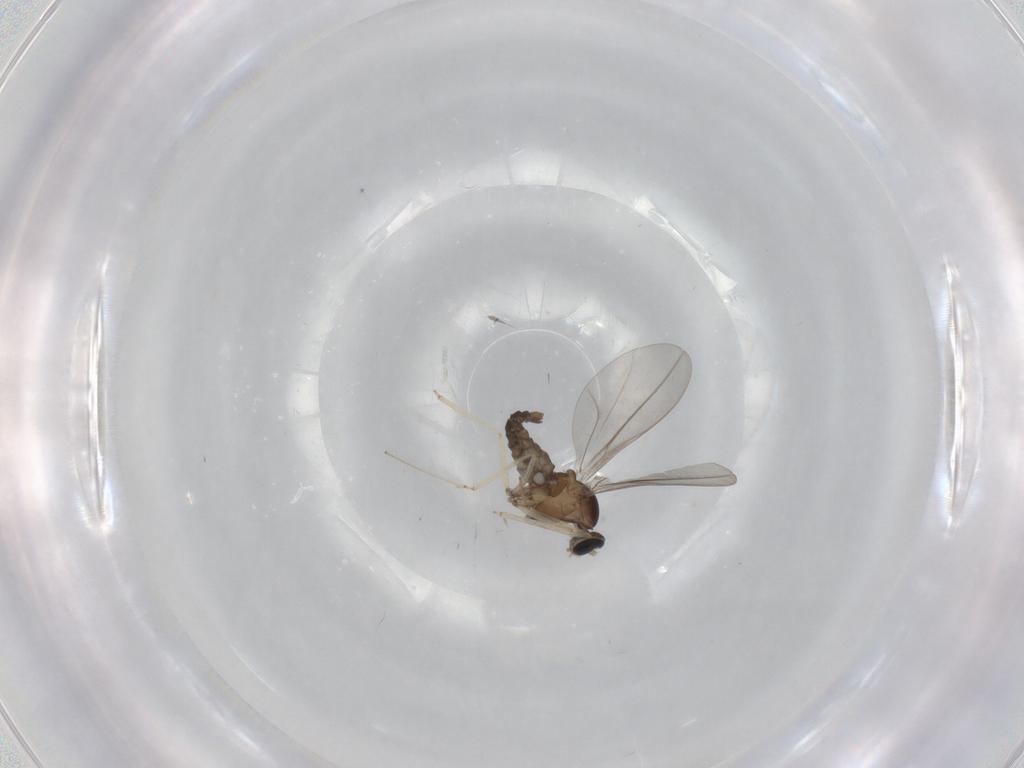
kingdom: Animalia
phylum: Arthropoda
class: Insecta
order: Diptera
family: Cecidomyiidae
